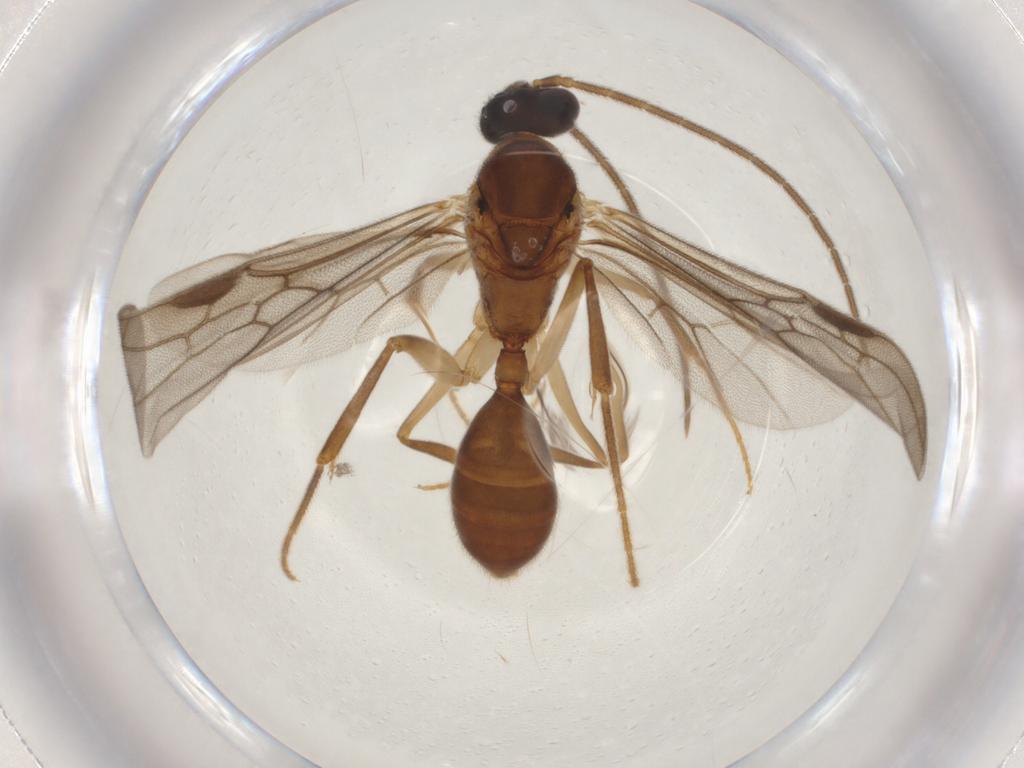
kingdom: Animalia
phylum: Arthropoda
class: Insecta
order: Hymenoptera
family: Formicidae
